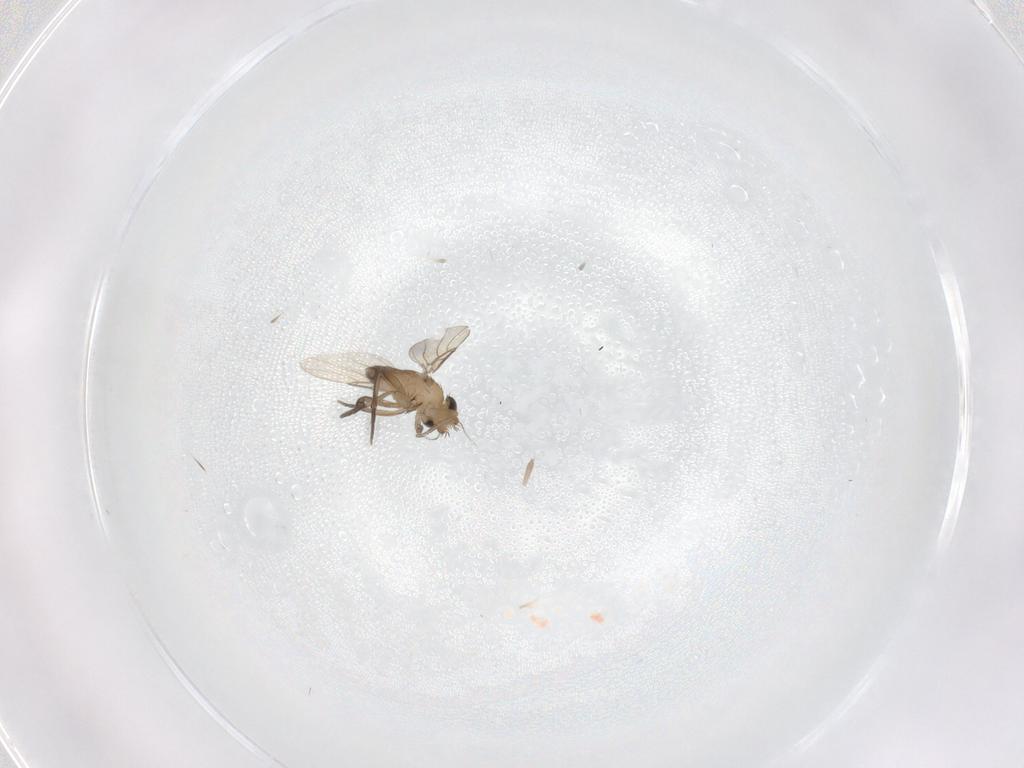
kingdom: Animalia
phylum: Arthropoda
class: Insecta
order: Diptera
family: Phoridae
